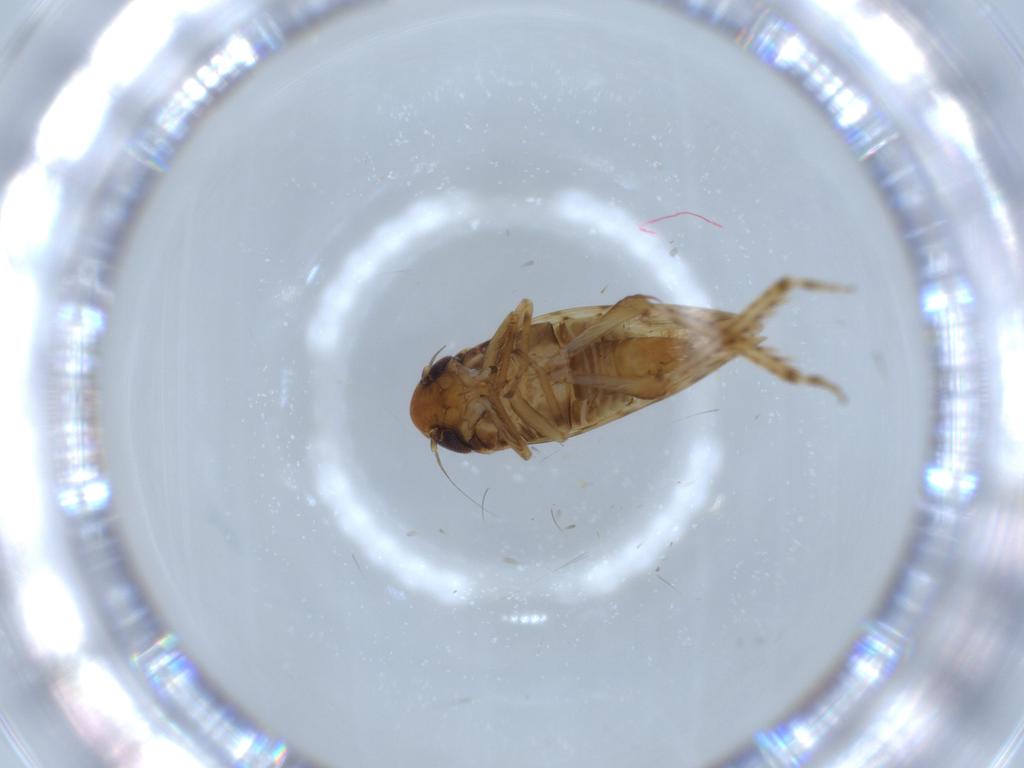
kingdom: Animalia
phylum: Arthropoda
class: Insecta
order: Hemiptera
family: Cicadellidae
